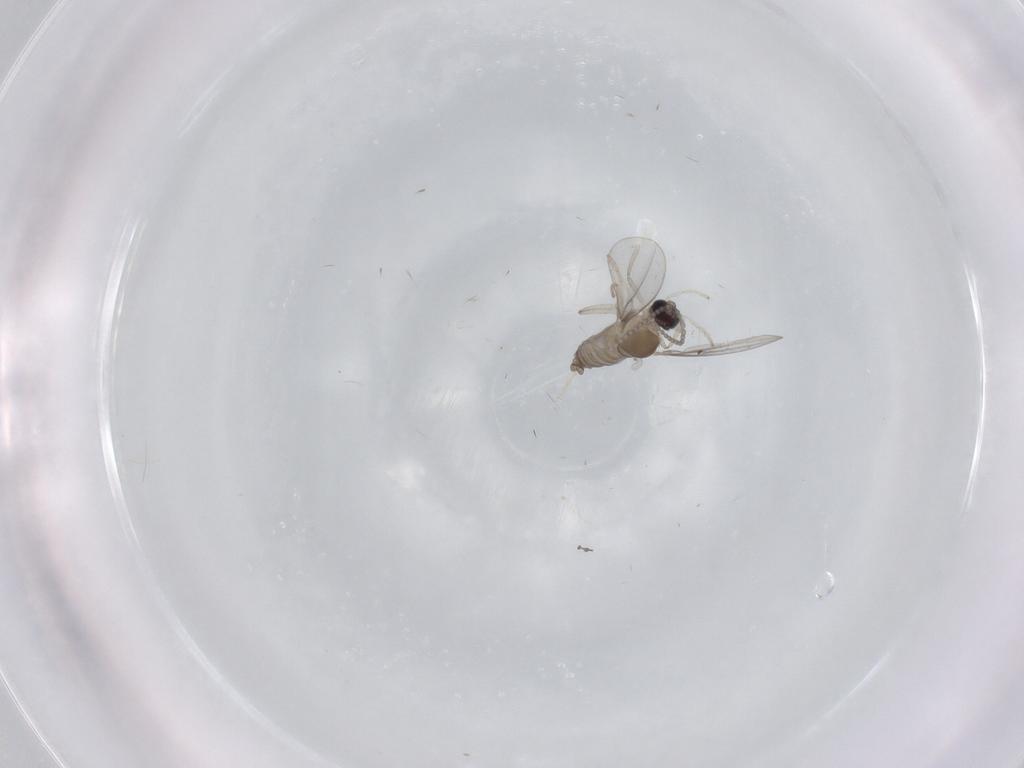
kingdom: Animalia
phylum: Arthropoda
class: Insecta
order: Diptera
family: Cecidomyiidae
